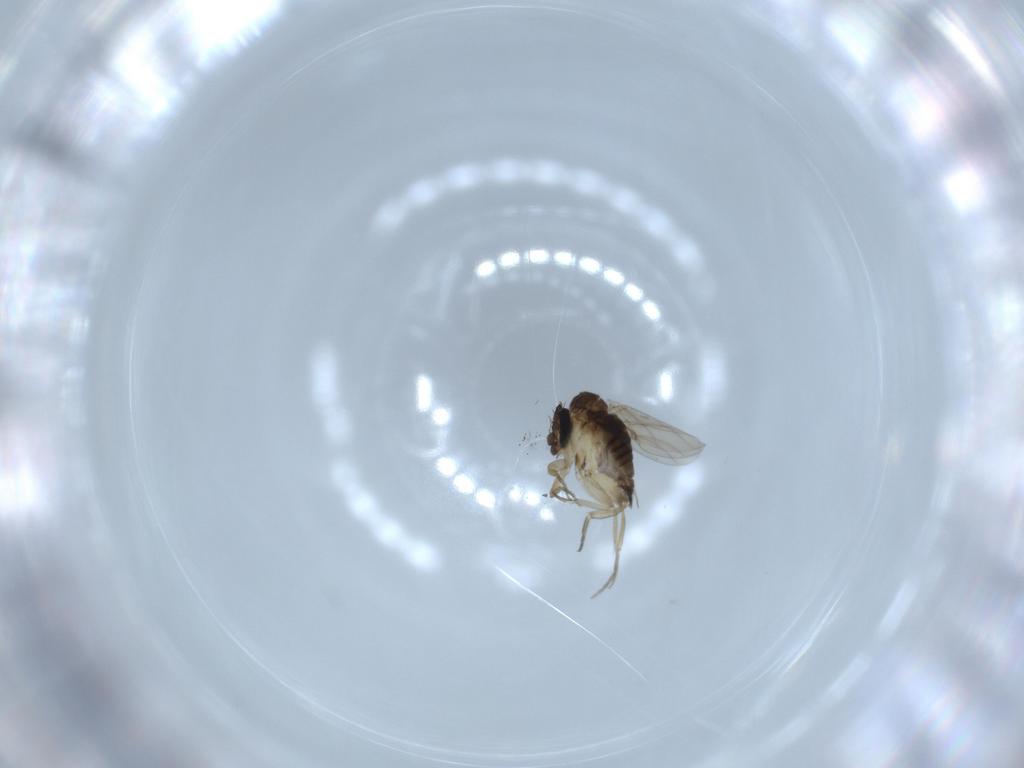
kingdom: Animalia
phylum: Arthropoda
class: Insecta
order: Diptera
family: Phoridae
